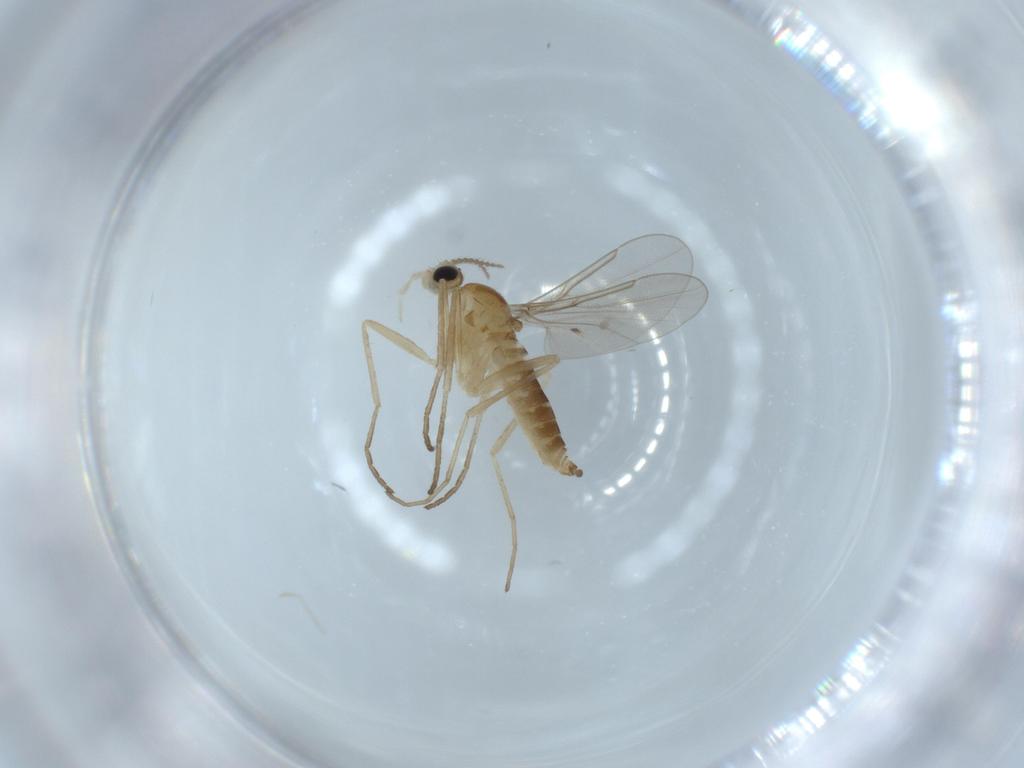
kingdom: Animalia
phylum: Arthropoda
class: Insecta
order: Diptera
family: Cecidomyiidae
